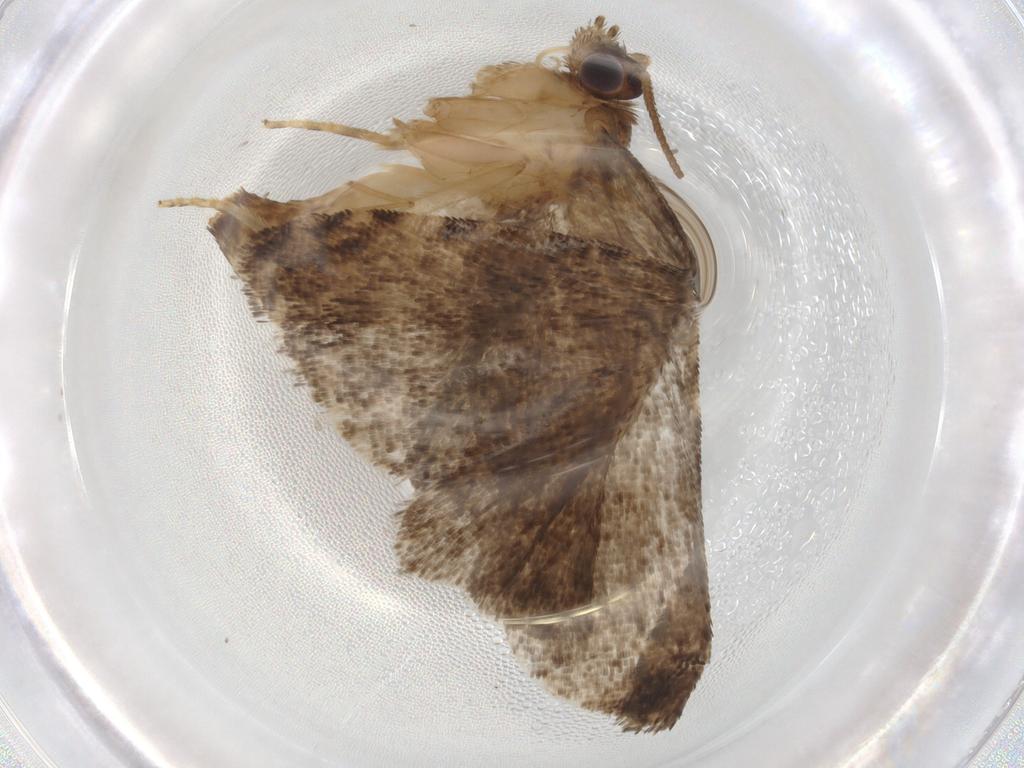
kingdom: Animalia
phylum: Arthropoda
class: Insecta
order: Lepidoptera
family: Tortricidae
